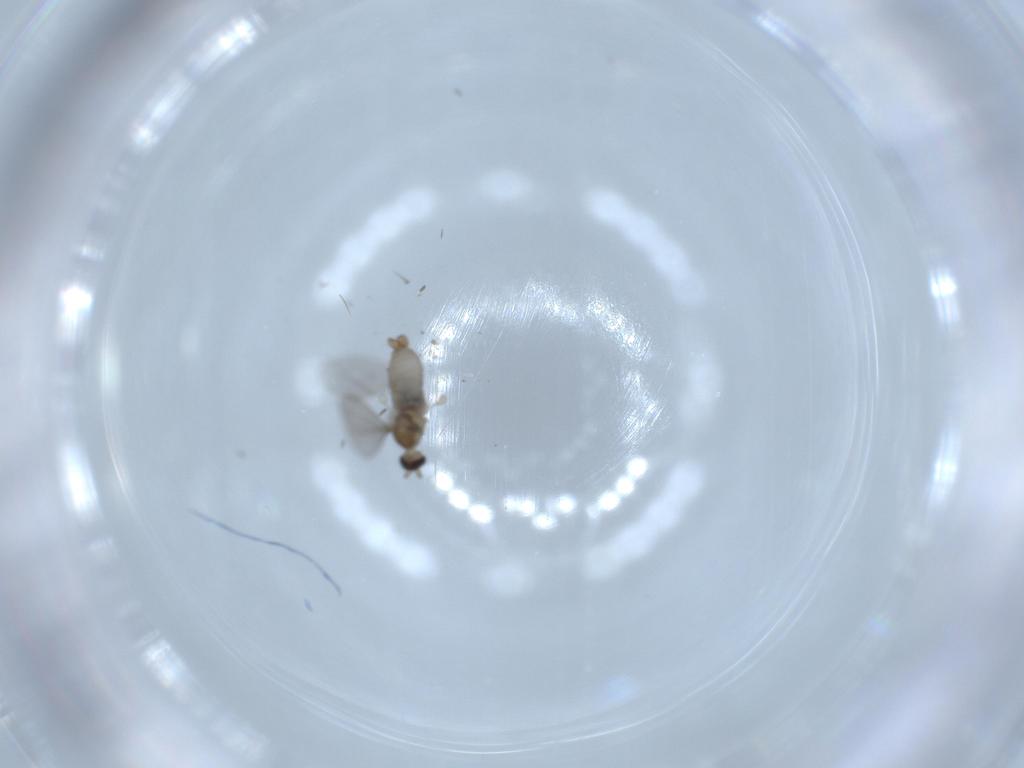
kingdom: Animalia
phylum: Arthropoda
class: Insecta
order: Diptera
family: Cecidomyiidae
